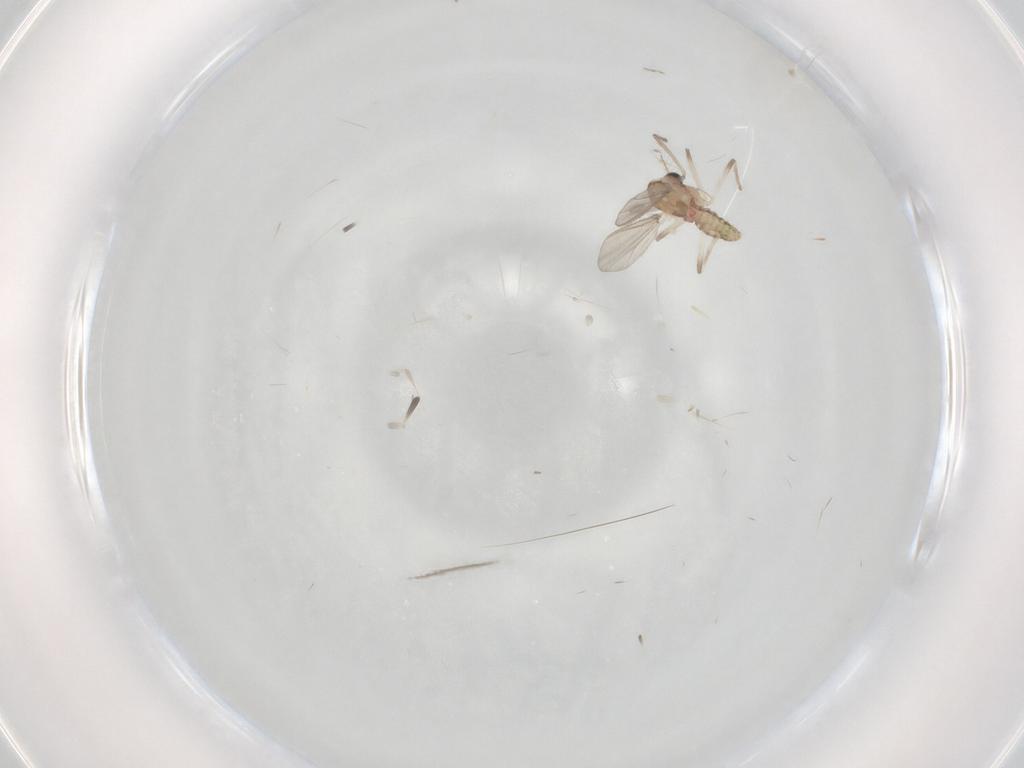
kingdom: Animalia
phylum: Arthropoda
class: Insecta
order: Diptera
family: Chironomidae
